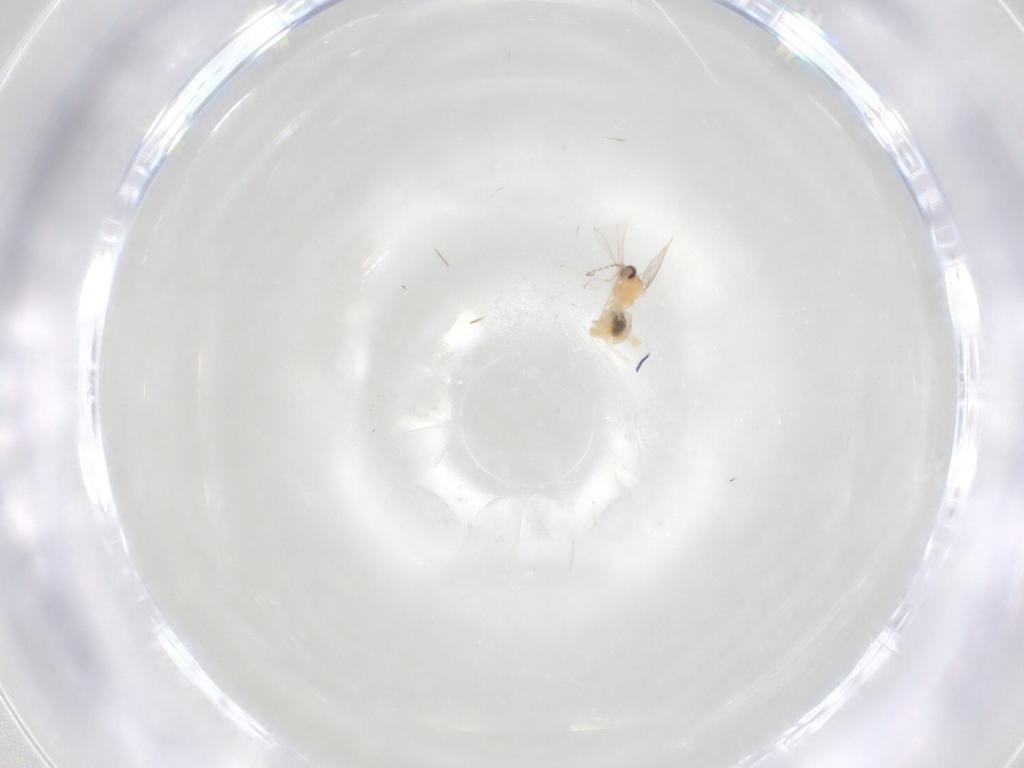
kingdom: Animalia
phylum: Arthropoda
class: Insecta
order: Diptera
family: Cecidomyiidae
